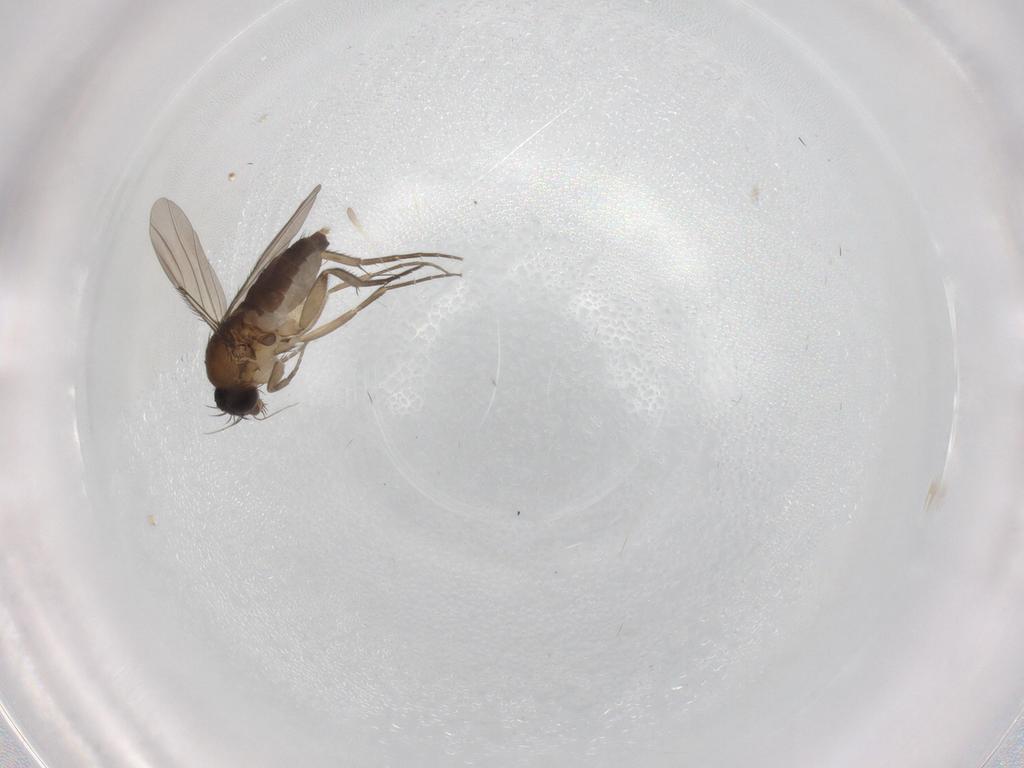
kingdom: Animalia
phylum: Arthropoda
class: Insecta
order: Diptera
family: Phoridae
